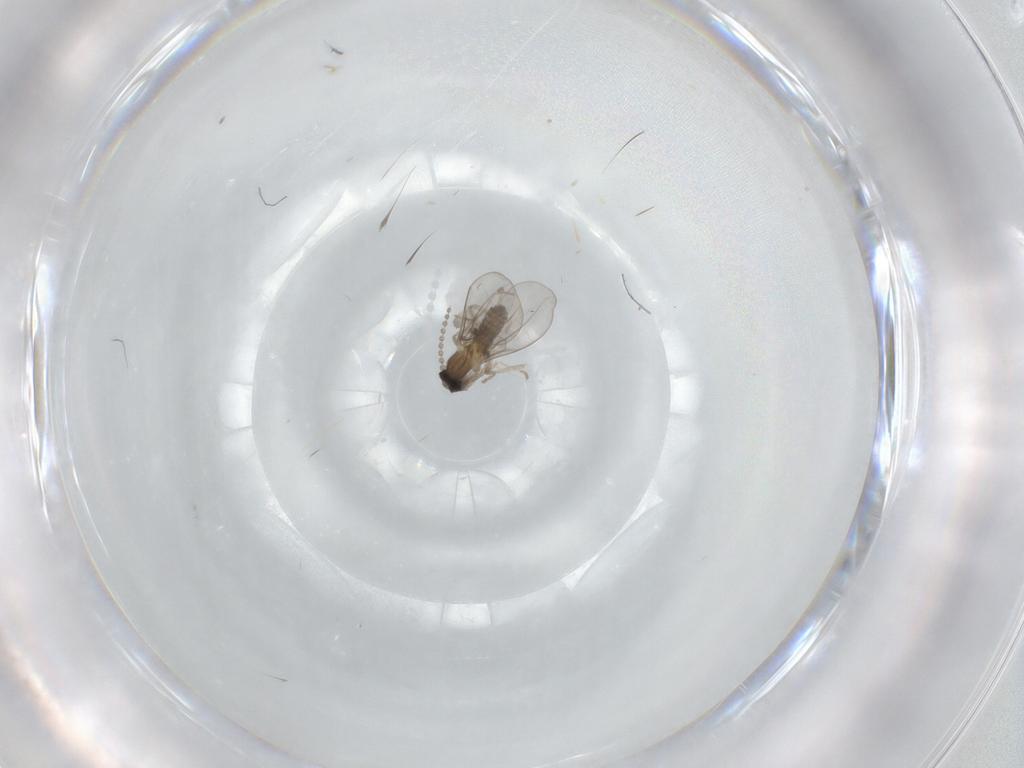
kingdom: Animalia
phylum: Arthropoda
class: Insecta
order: Diptera
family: Cecidomyiidae
